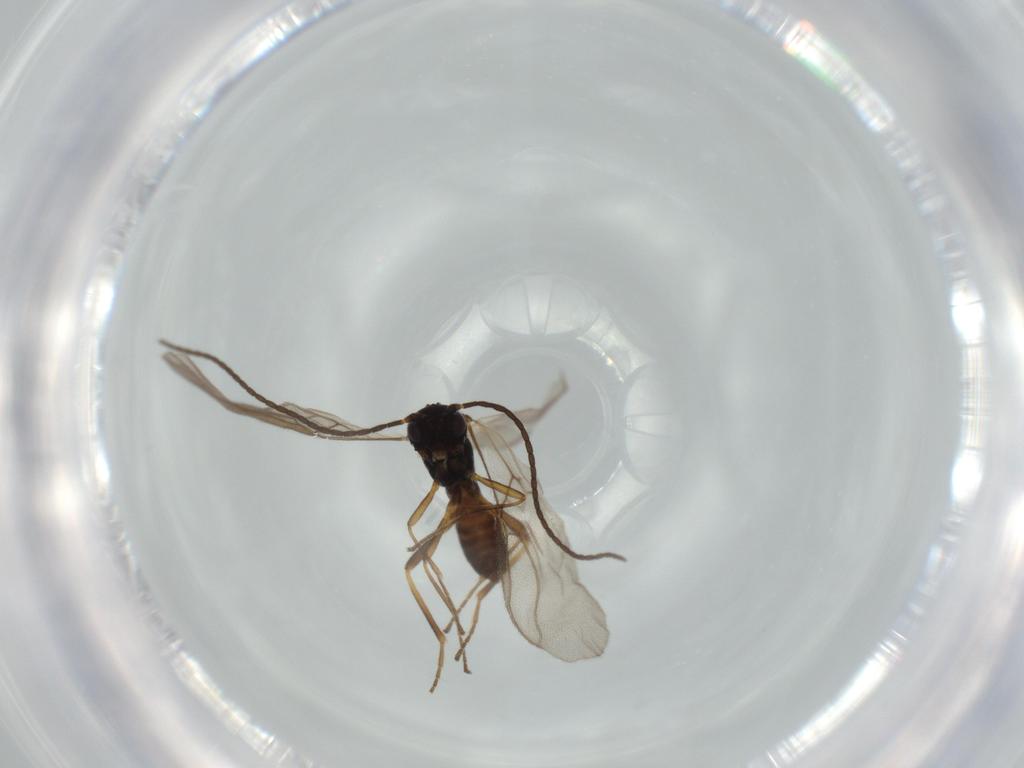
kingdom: Animalia
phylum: Arthropoda
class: Insecta
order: Hymenoptera
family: Braconidae
